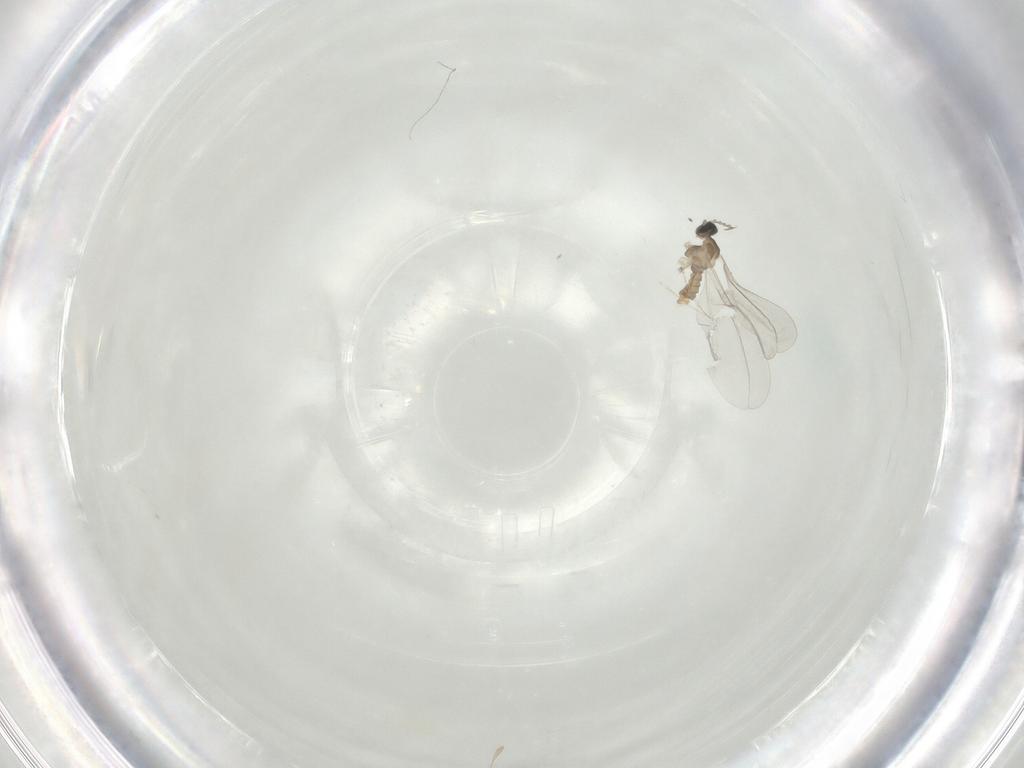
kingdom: Animalia
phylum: Arthropoda
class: Insecta
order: Diptera
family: Cecidomyiidae
